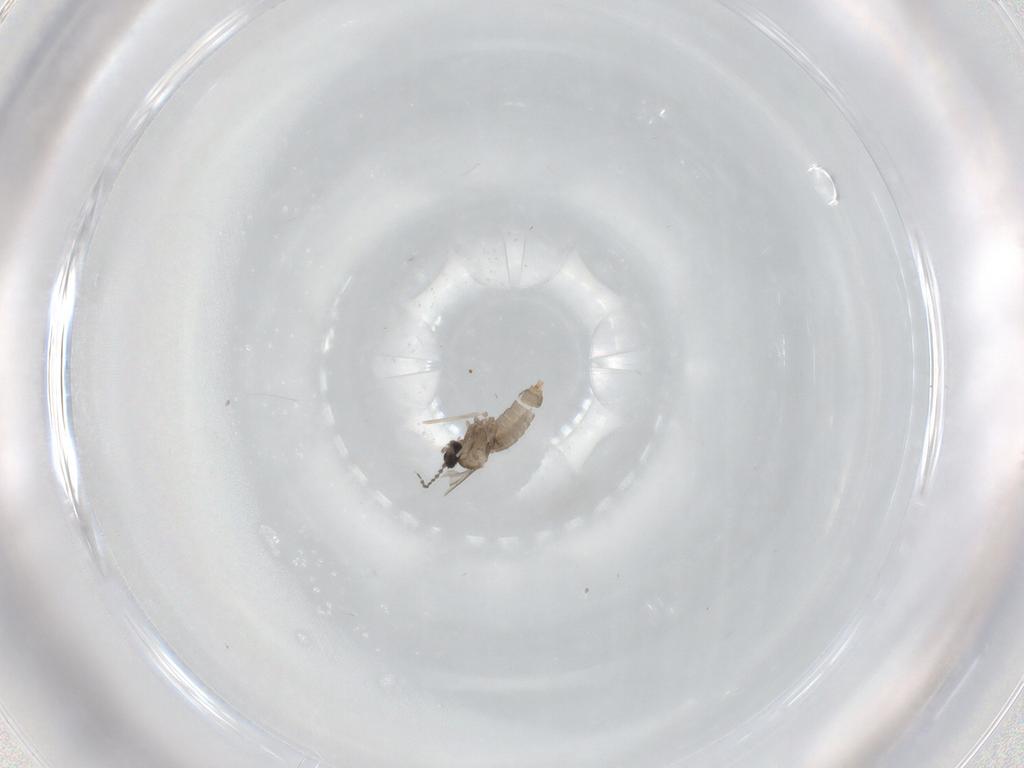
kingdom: Animalia
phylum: Arthropoda
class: Insecta
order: Diptera
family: Cecidomyiidae
